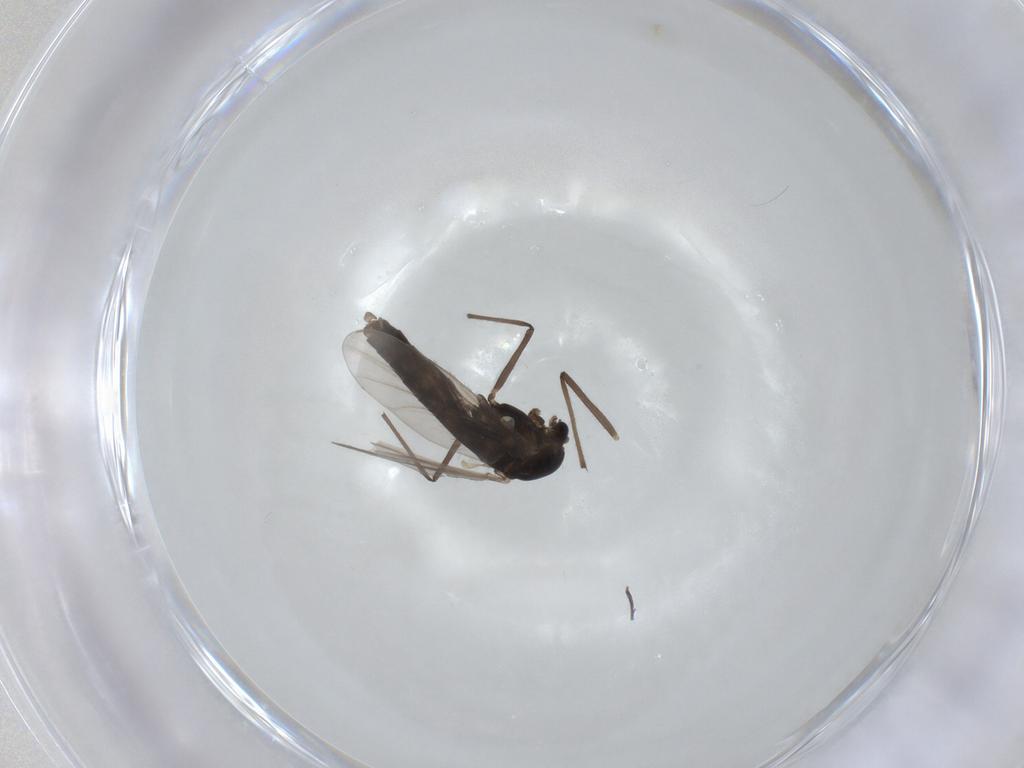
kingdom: Animalia
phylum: Arthropoda
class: Insecta
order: Diptera
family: Chironomidae
